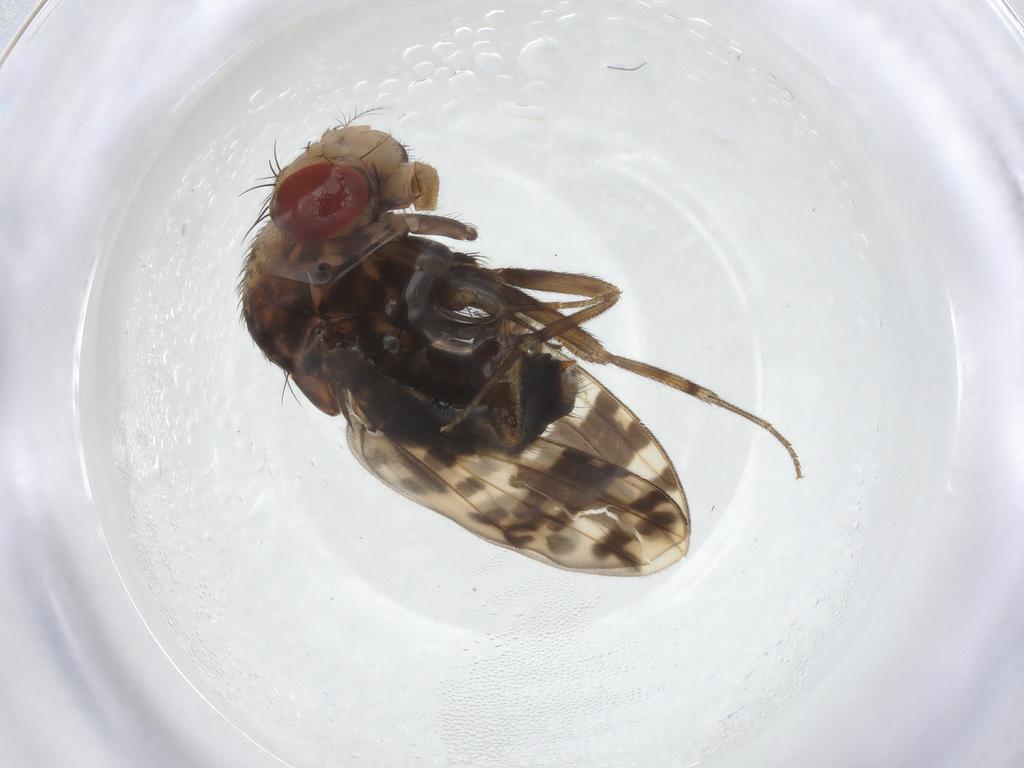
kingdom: Animalia
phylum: Arthropoda
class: Insecta
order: Diptera
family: Drosophilidae
